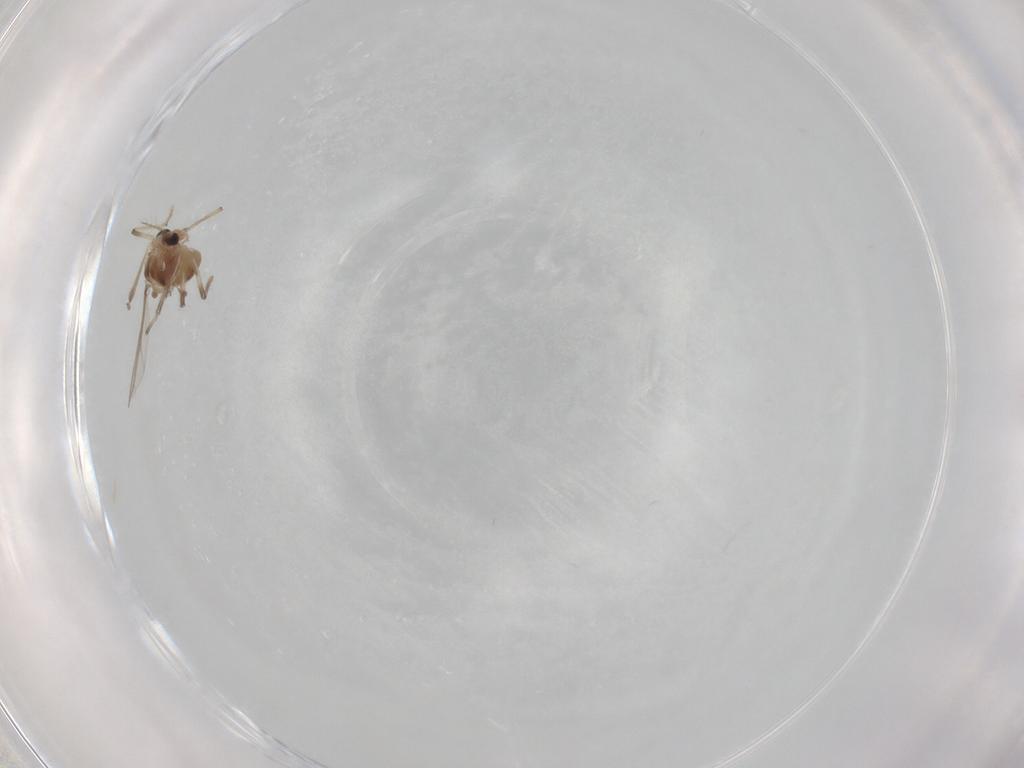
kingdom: Animalia
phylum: Arthropoda
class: Insecta
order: Diptera
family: Chironomidae
